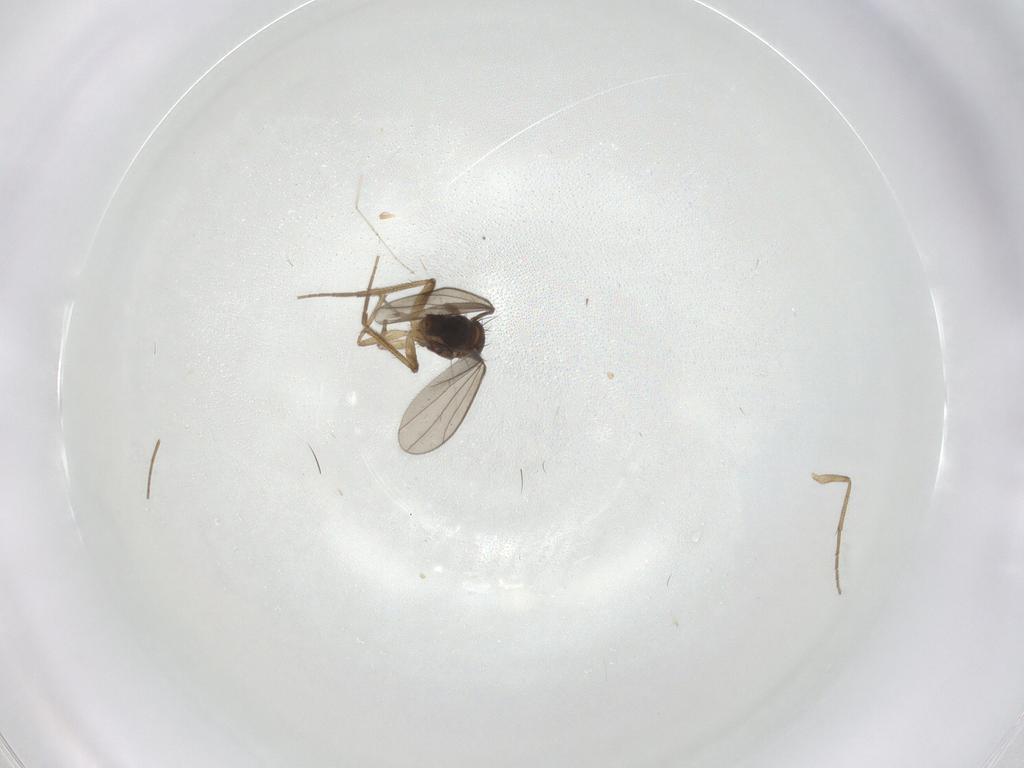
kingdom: Animalia
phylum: Arthropoda
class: Insecta
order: Diptera
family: Dolichopodidae
